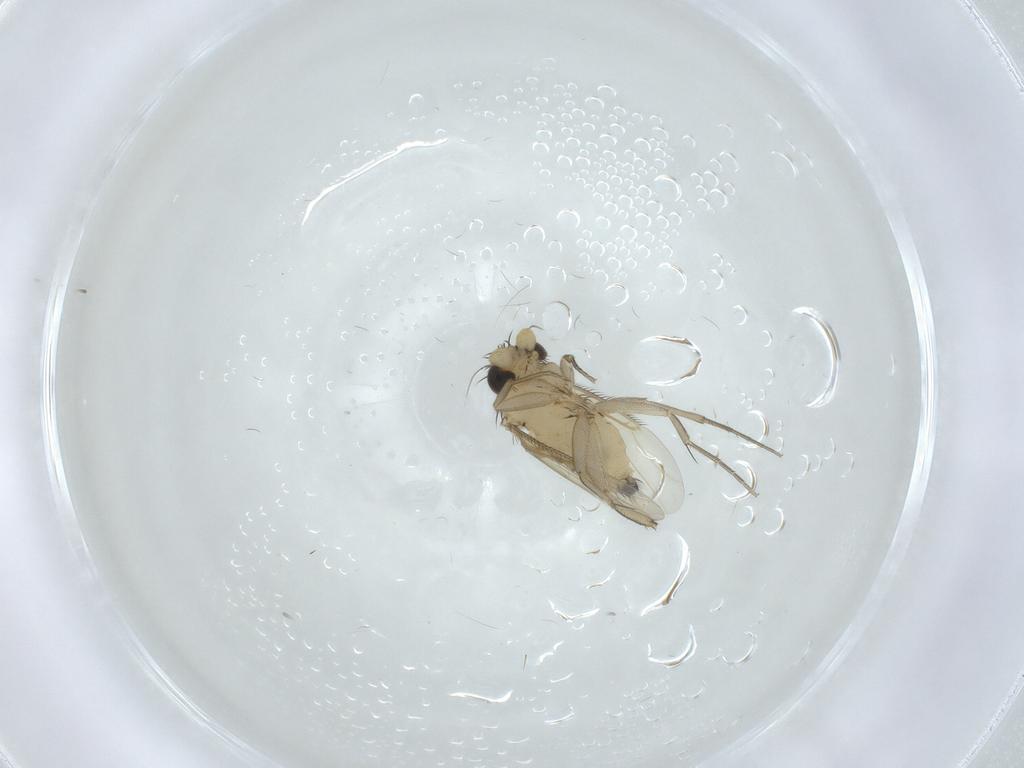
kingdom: Animalia
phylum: Arthropoda
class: Insecta
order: Diptera
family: Phoridae
